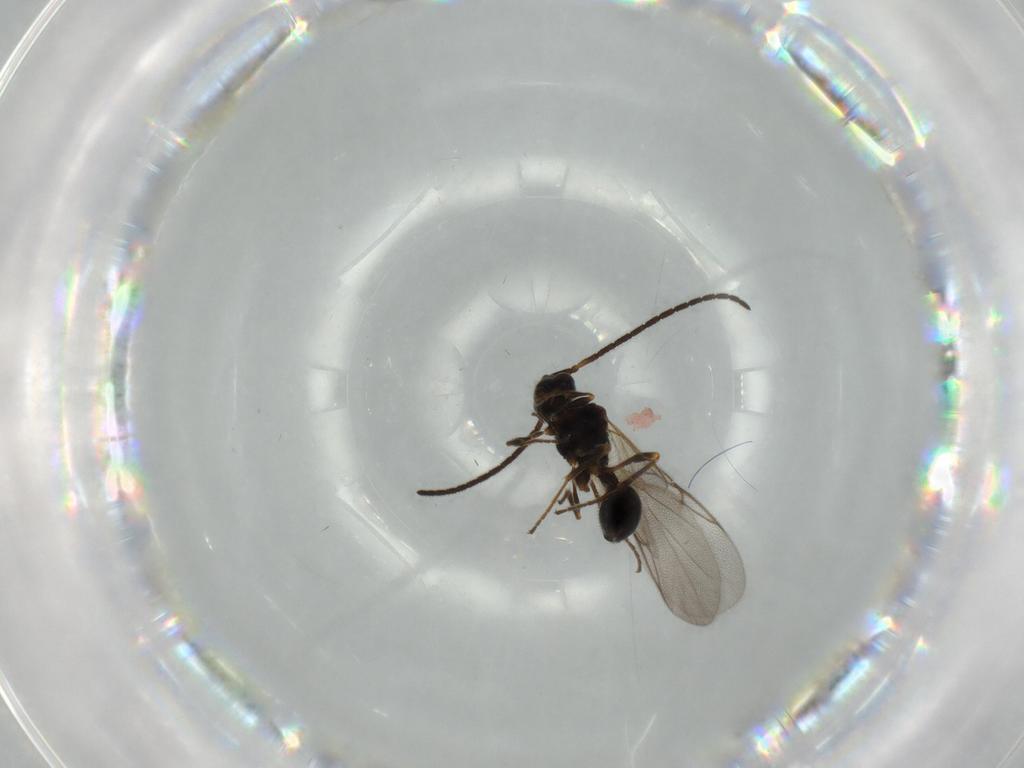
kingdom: Animalia
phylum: Arthropoda
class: Insecta
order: Hymenoptera
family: Diapriidae
